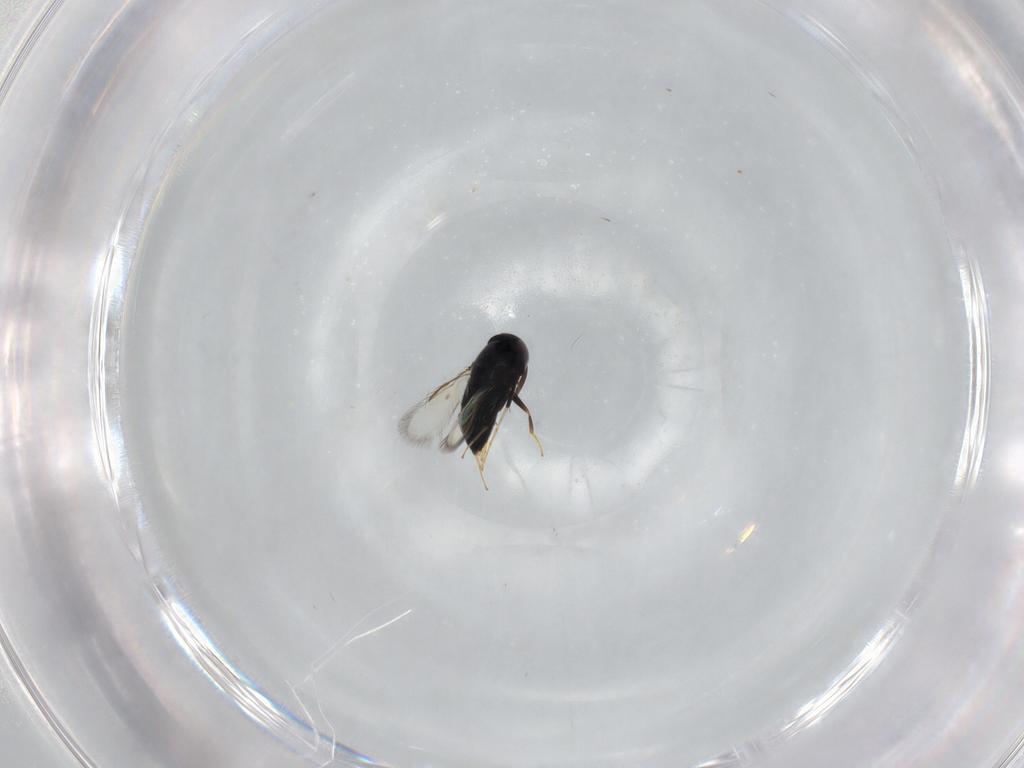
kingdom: Animalia
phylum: Arthropoda
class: Insecta
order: Hymenoptera
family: Signiphoridae
